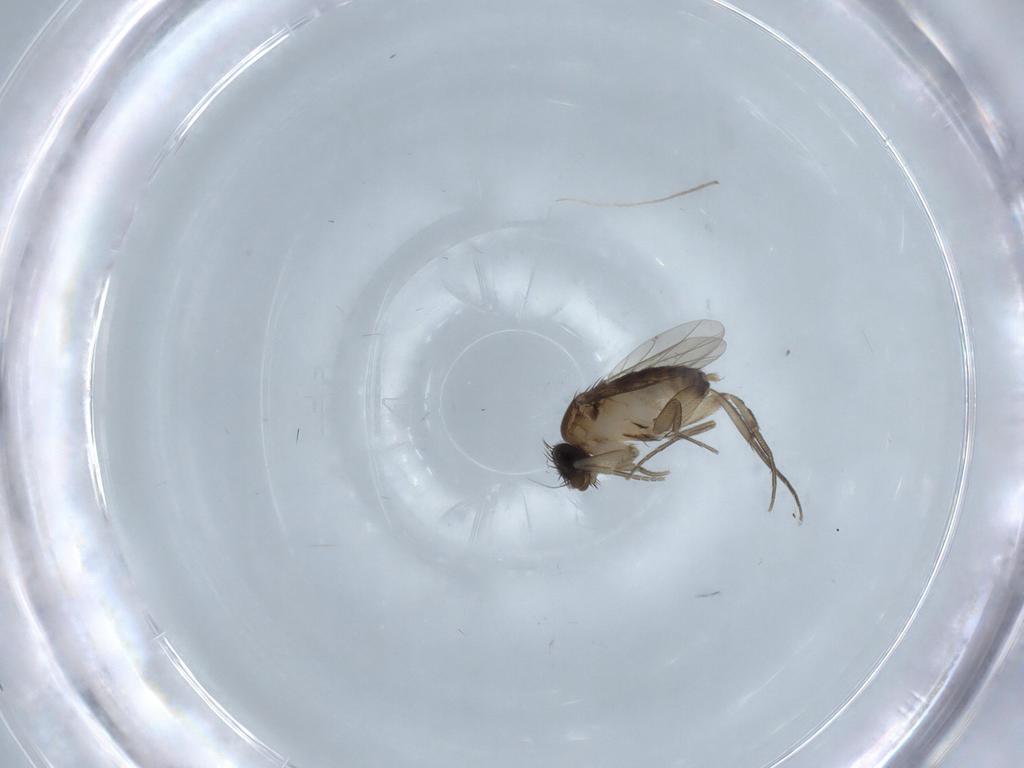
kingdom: Animalia
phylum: Arthropoda
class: Insecta
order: Diptera
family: Phoridae
